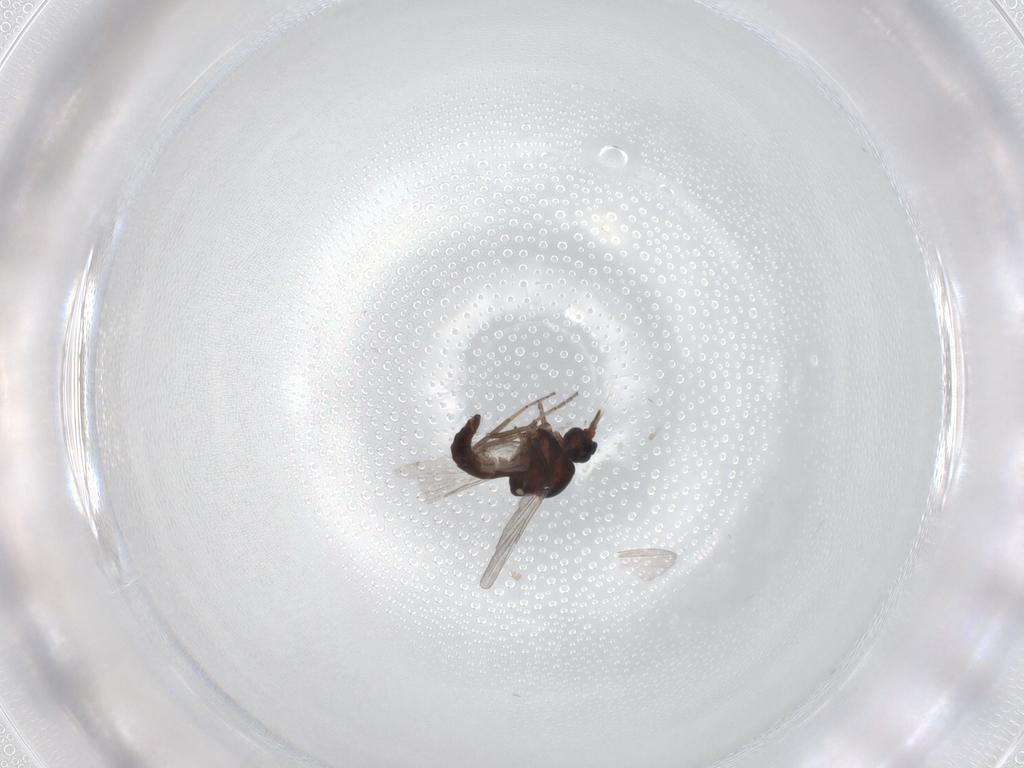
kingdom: Animalia
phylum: Arthropoda
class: Insecta
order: Diptera
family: Ceratopogonidae
